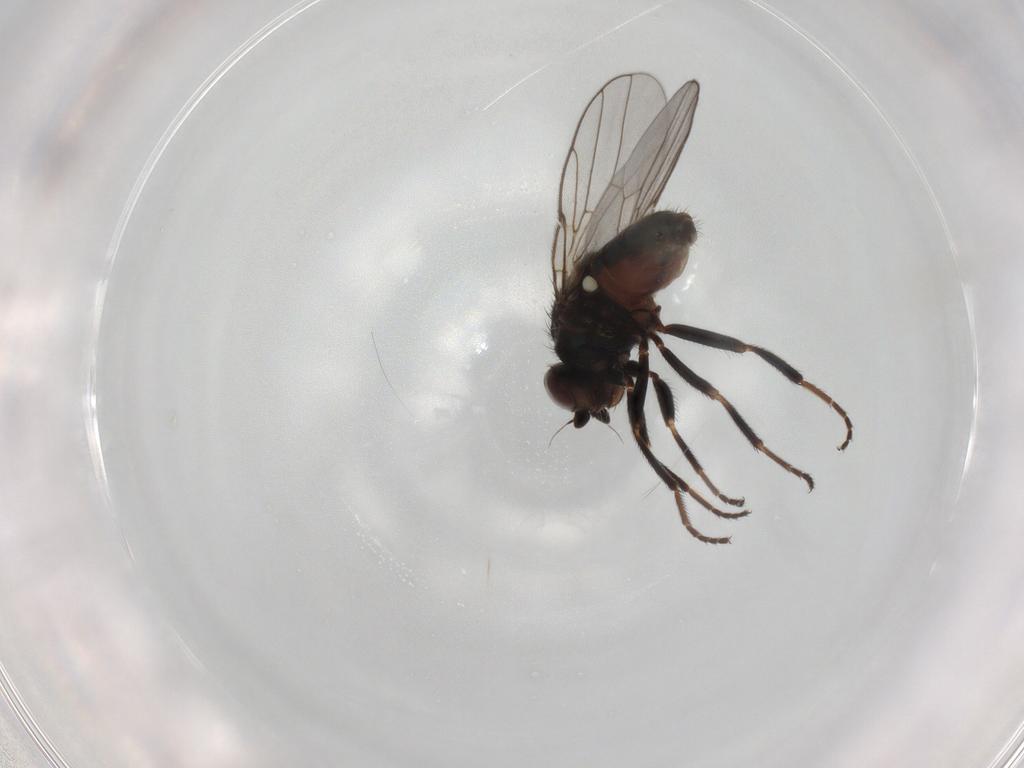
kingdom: Animalia
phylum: Arthropoda
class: Insecta
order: Diptera
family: Chloropidae
